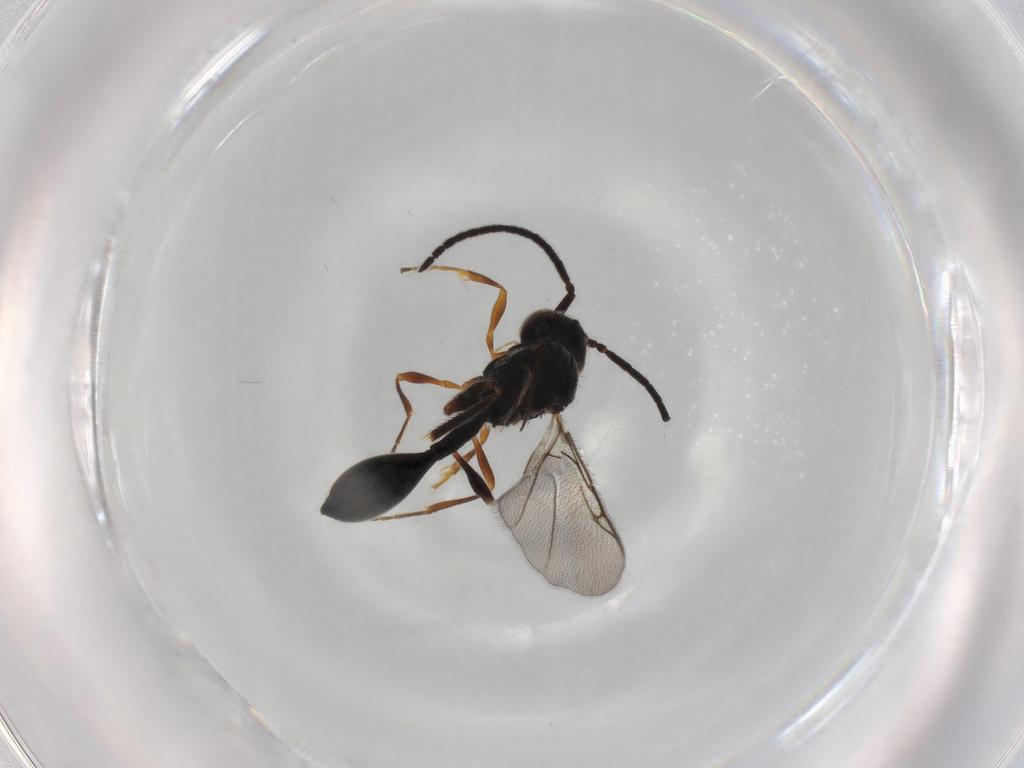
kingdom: Animalia
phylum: Arthropoda
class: Insecta
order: Hymenoptera
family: Diapriidae
